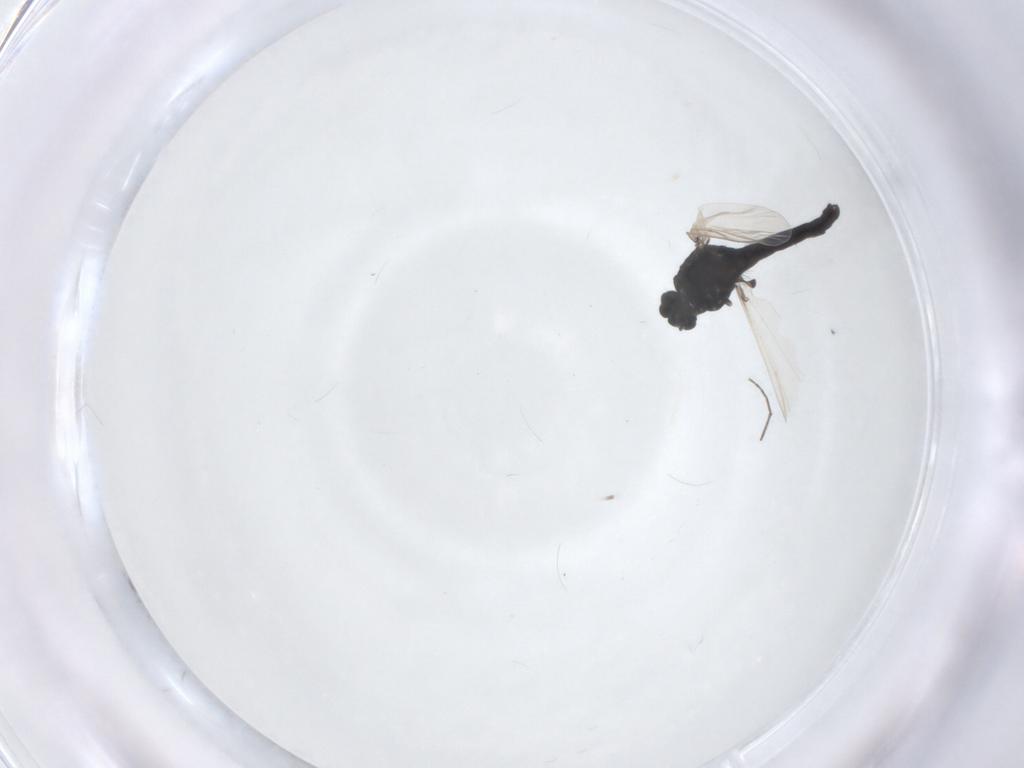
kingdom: Animalia
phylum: Arthropoda
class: Insecta
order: Diptera
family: Chironomidae
